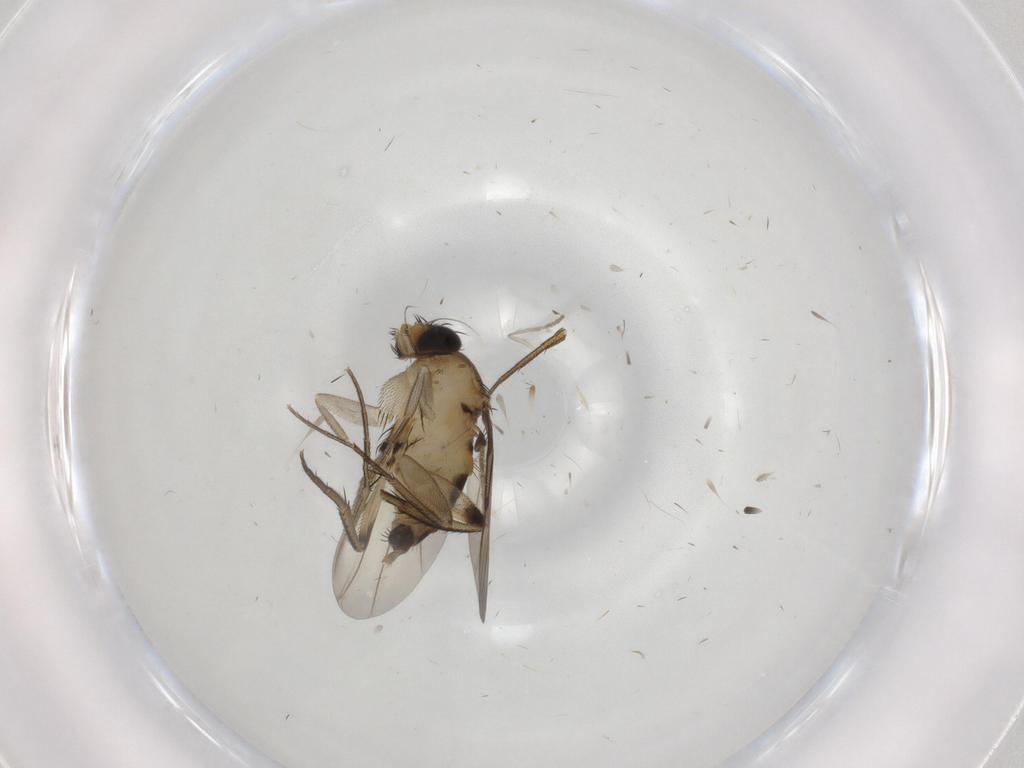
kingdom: Animalia
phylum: Arthropoda
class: Insecta
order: Diptera
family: Phoridae
